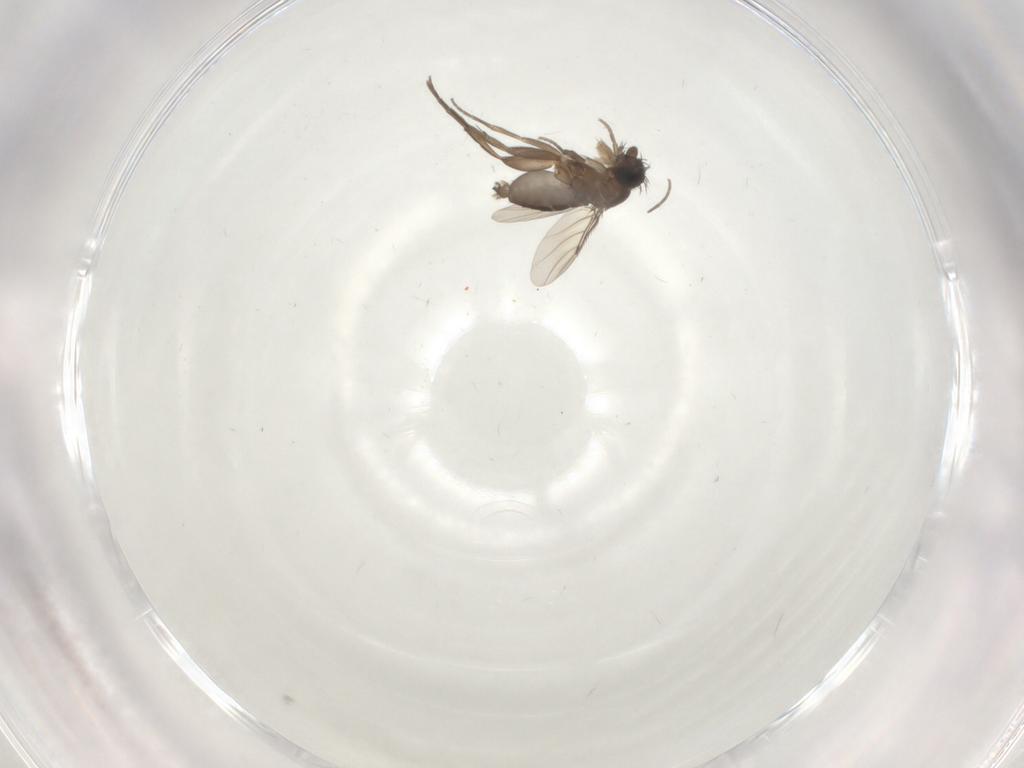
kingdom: Animalia
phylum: Arthropoda
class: Insecta
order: Diptera
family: Phoridae
